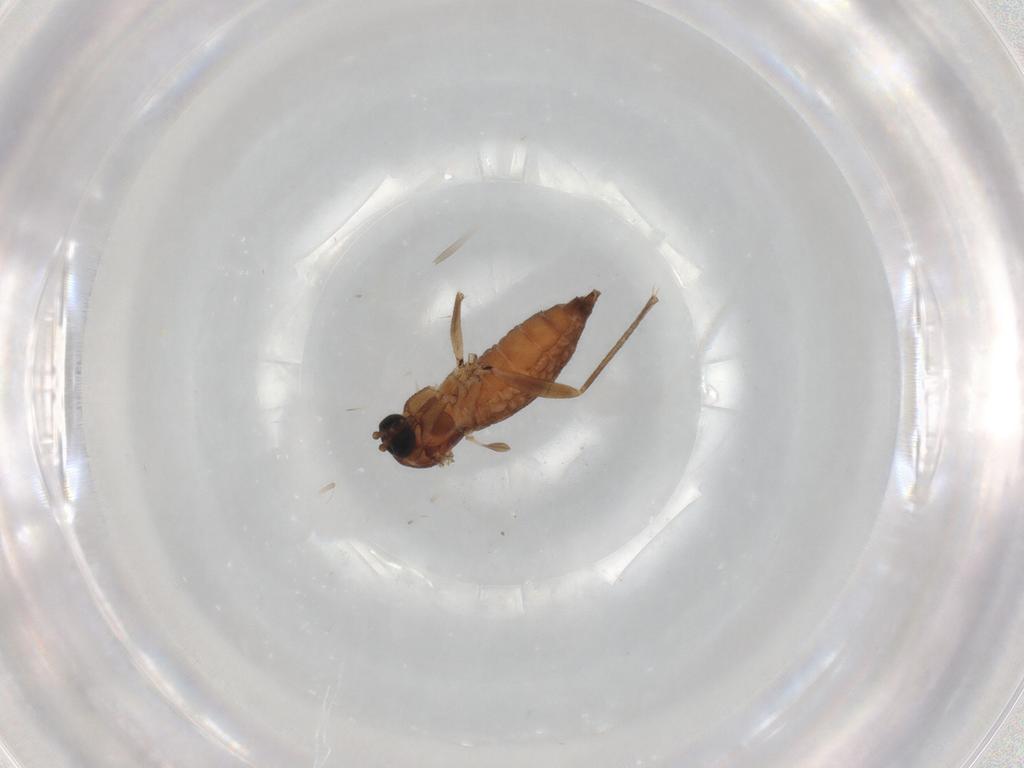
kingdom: Animalia
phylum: Arthropoda
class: Insecta
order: Diptera
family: Sciaridae
